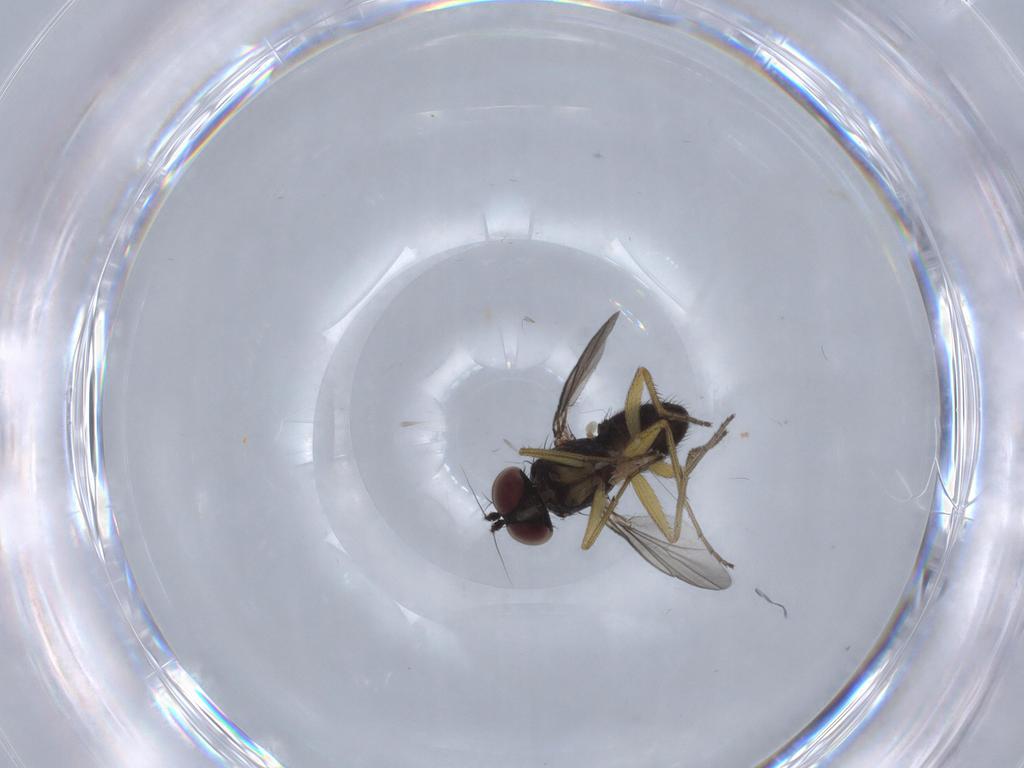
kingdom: Animalia
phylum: Arthropoda
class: Insecta
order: Diptera
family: Dolichopodidae
